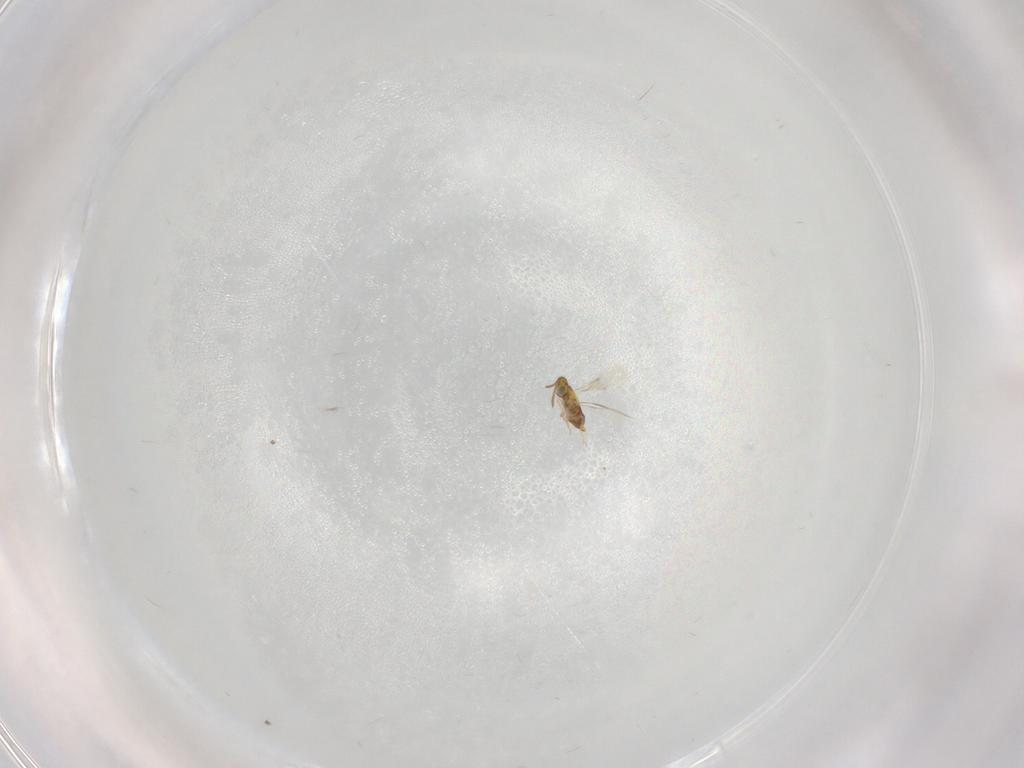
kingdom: Animalia
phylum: Arthropoda
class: Insecta
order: Hymenoptera
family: Aphelinidae
